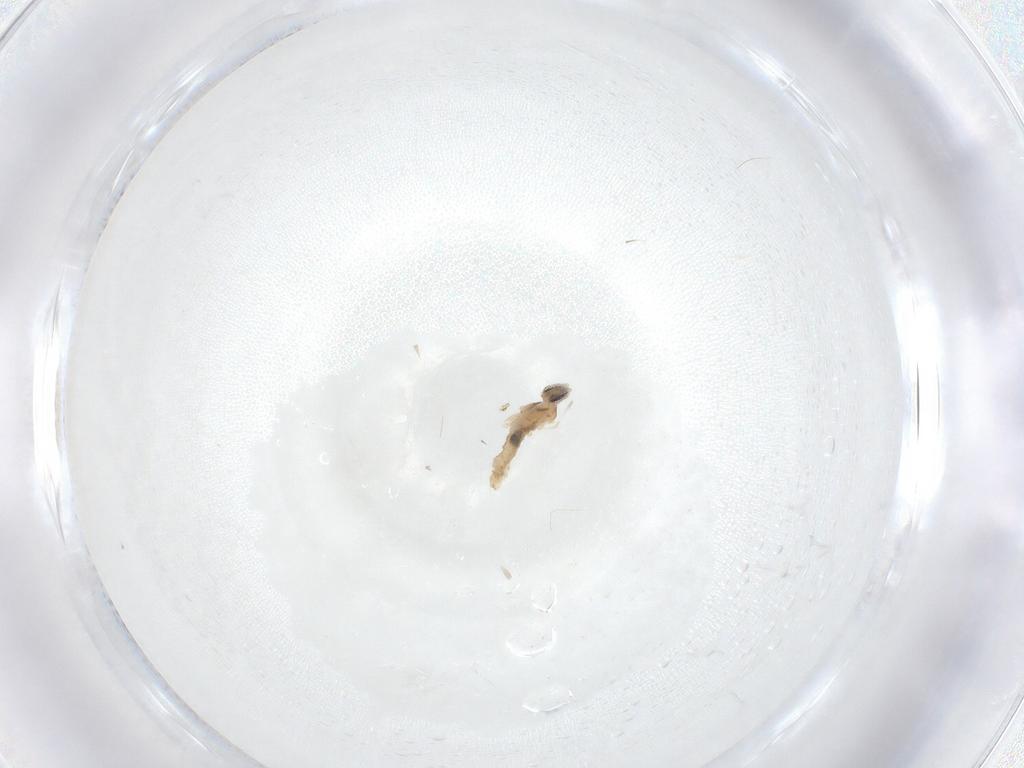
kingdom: Animalia
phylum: Arthropoda
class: Insecta
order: Diptera
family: Cecidomyiidae
